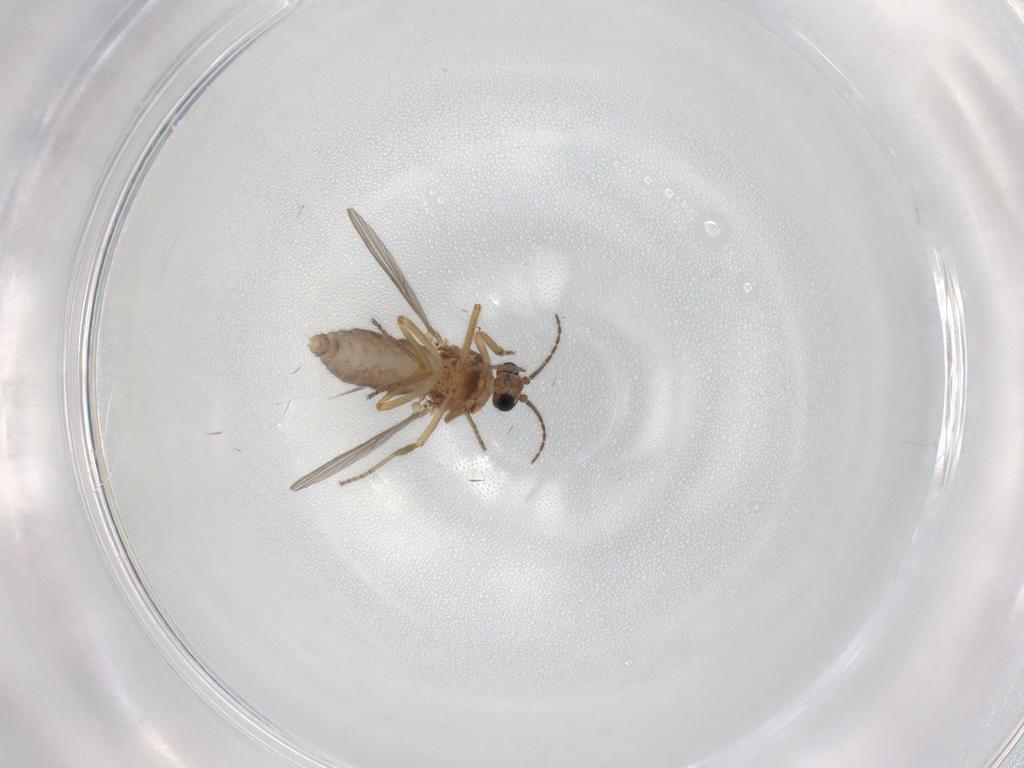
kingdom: Animalia
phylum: Arthropoda
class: Insecta
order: Diptera
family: Ceratopogonidae
